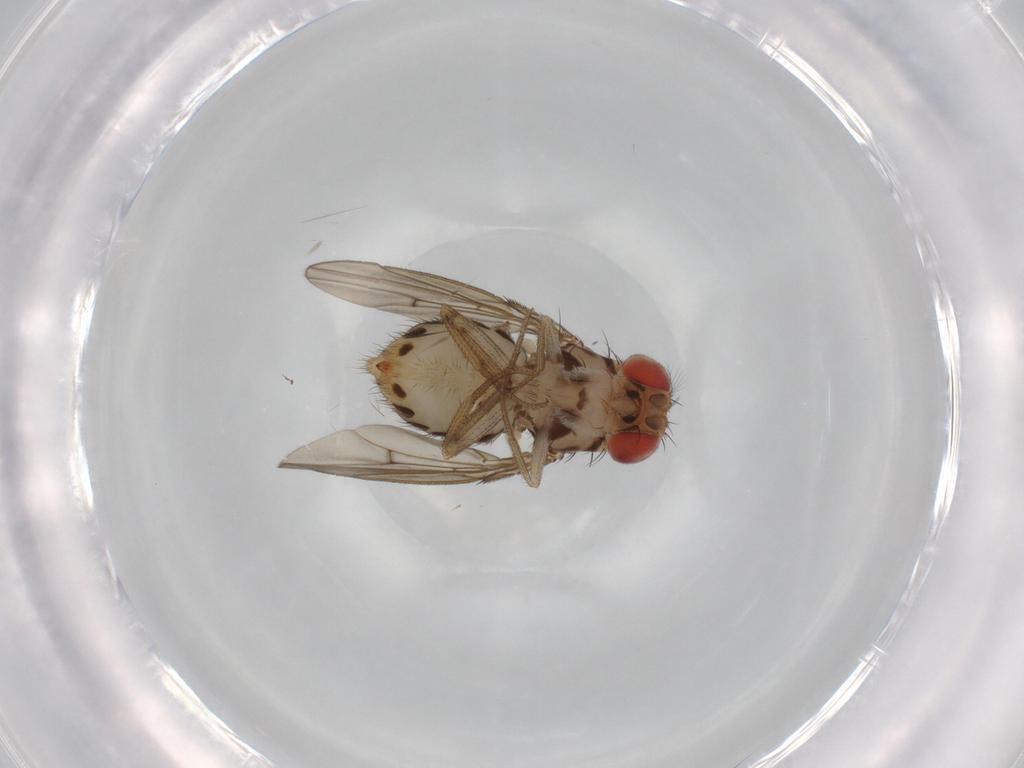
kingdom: Animalia
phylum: Arthropoda
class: Insecta
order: Diptera
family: Drosophilidae
